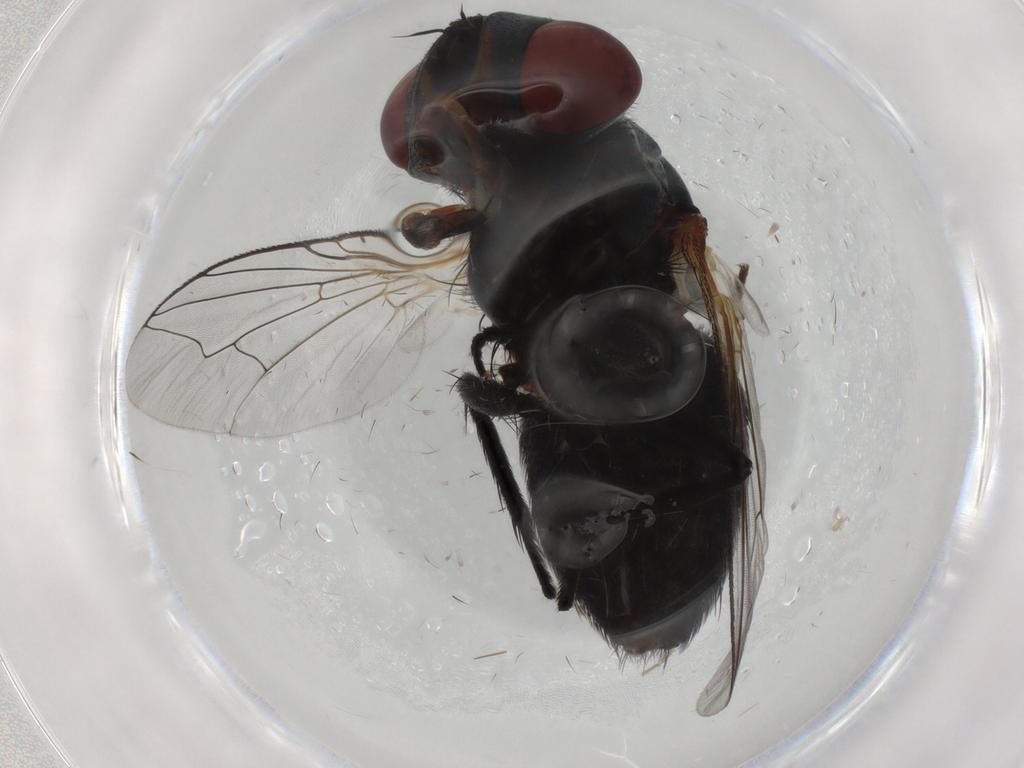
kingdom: Animalia
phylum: Arthropoda
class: Insecta
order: Diptera
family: Sarcophagidae
